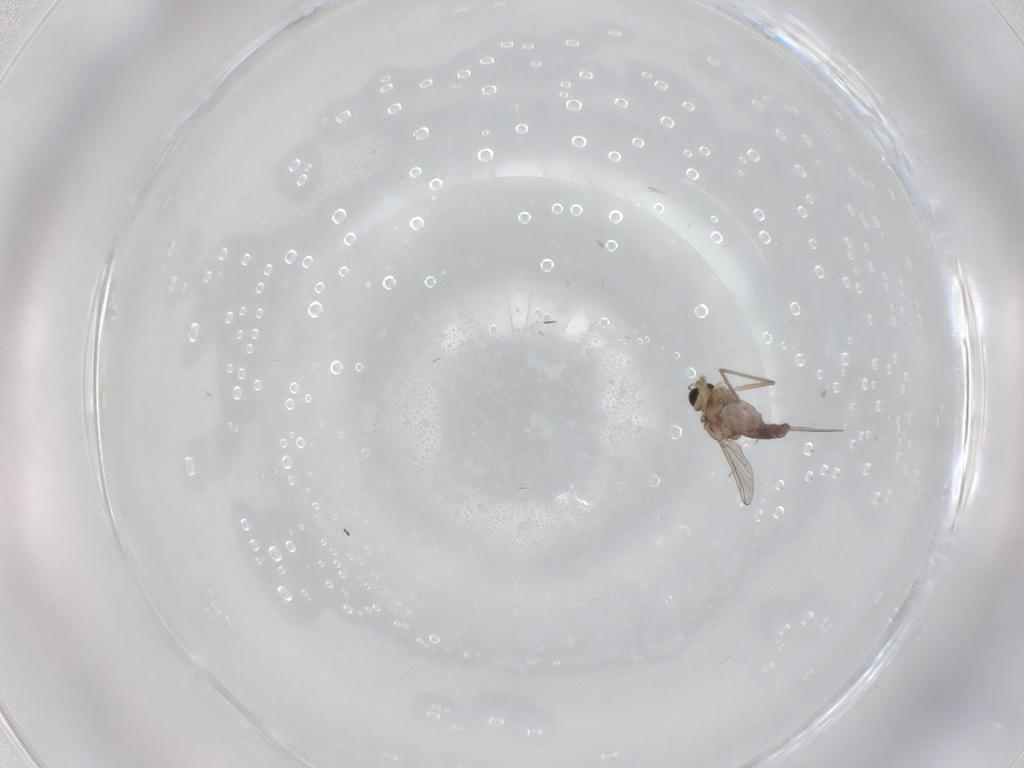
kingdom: Animalia
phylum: Arthropoda
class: Insecta
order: Diptera
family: Chironomidae
